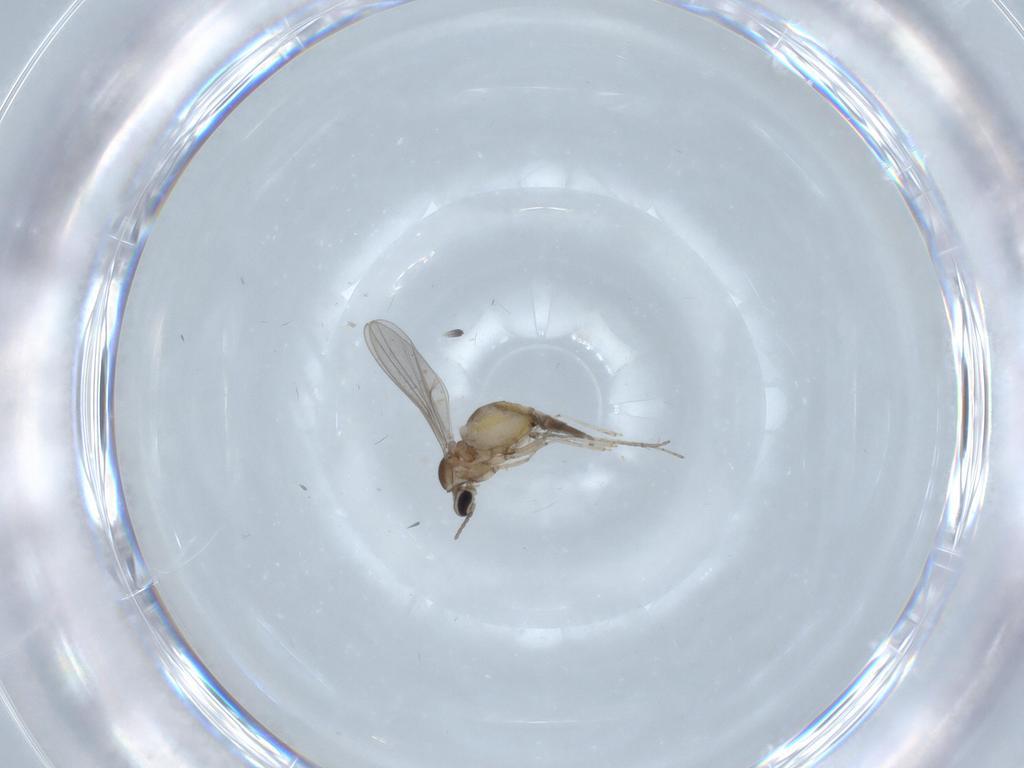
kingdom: Animalia
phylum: Arthropoda
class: Insecta
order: Diptera
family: Cecidomyiidae
